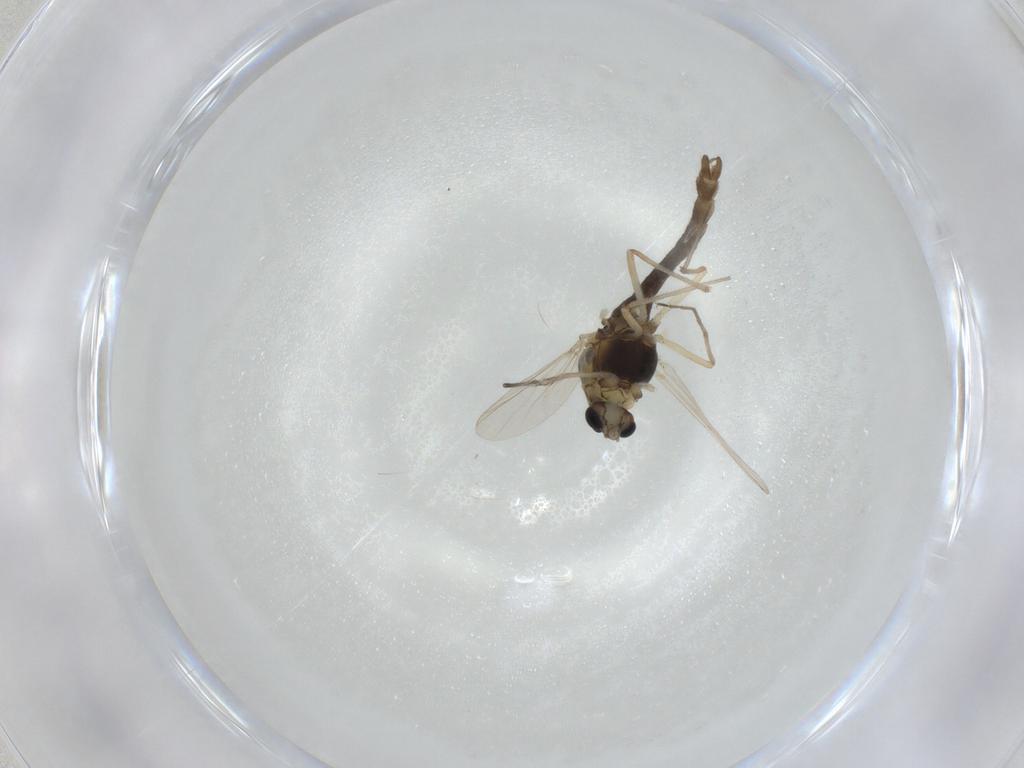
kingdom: Animalia
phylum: Arthropoda
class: Insecta
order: Diptera
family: Chironomidae
